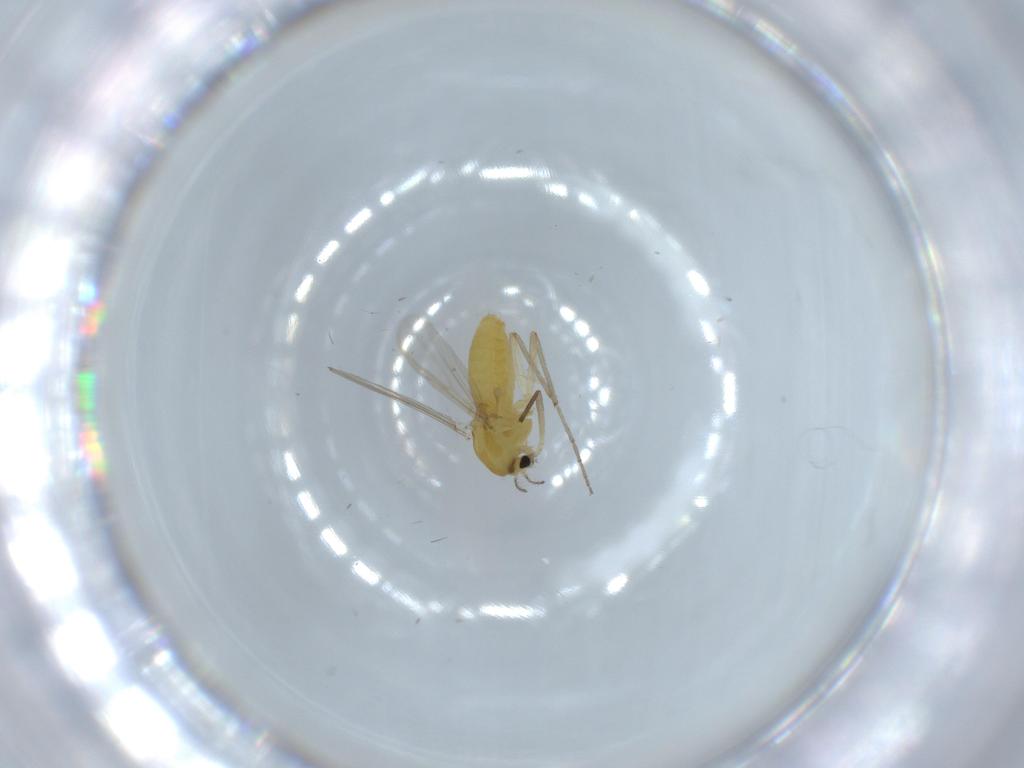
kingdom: Animalia
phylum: Arthropoda
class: Insecta
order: Diptera
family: Chironomidae
